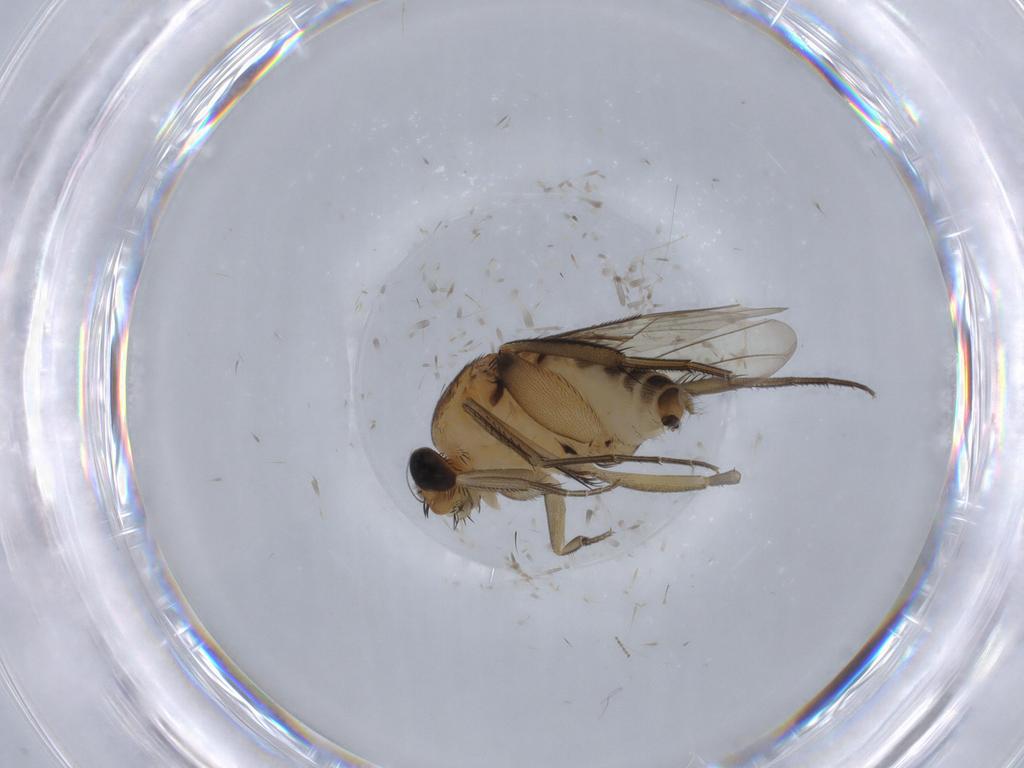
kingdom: Animalia
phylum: Arthropoda
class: Insecta
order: Diptera
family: Cecidomyiidae
